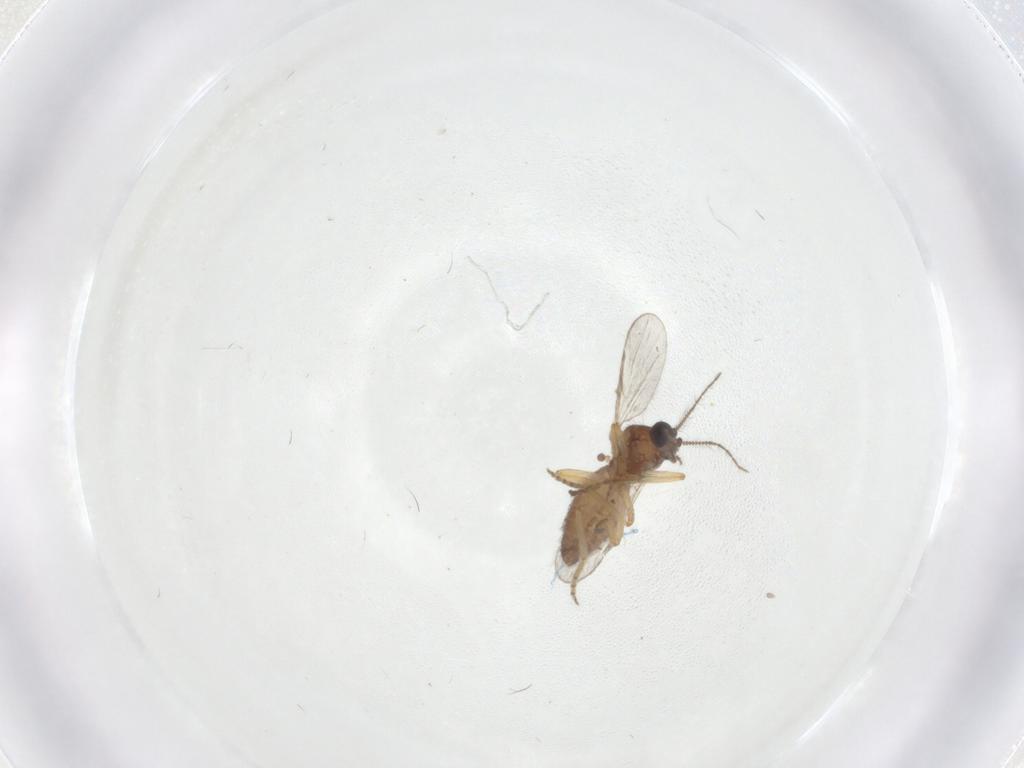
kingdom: Animalia
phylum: Arthropoda
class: Insecta
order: Diptera
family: Ceratopogonidae
